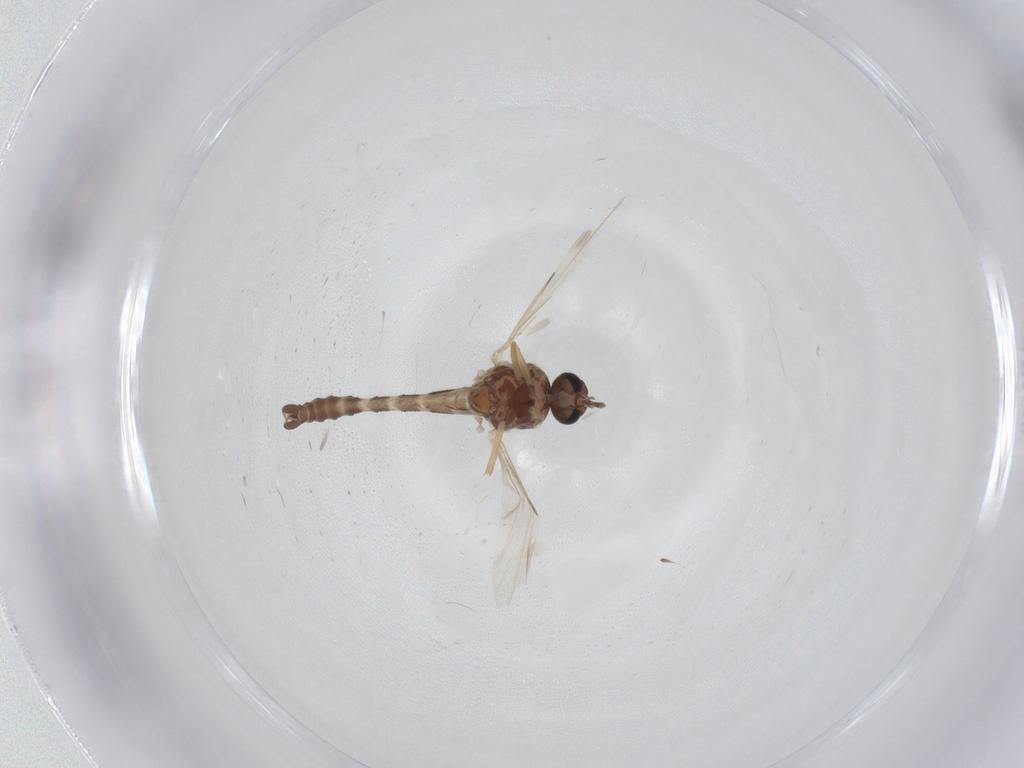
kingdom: Animalia
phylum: Arthropoda
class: Insecta
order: Diptera
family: Ceratopogonidae
